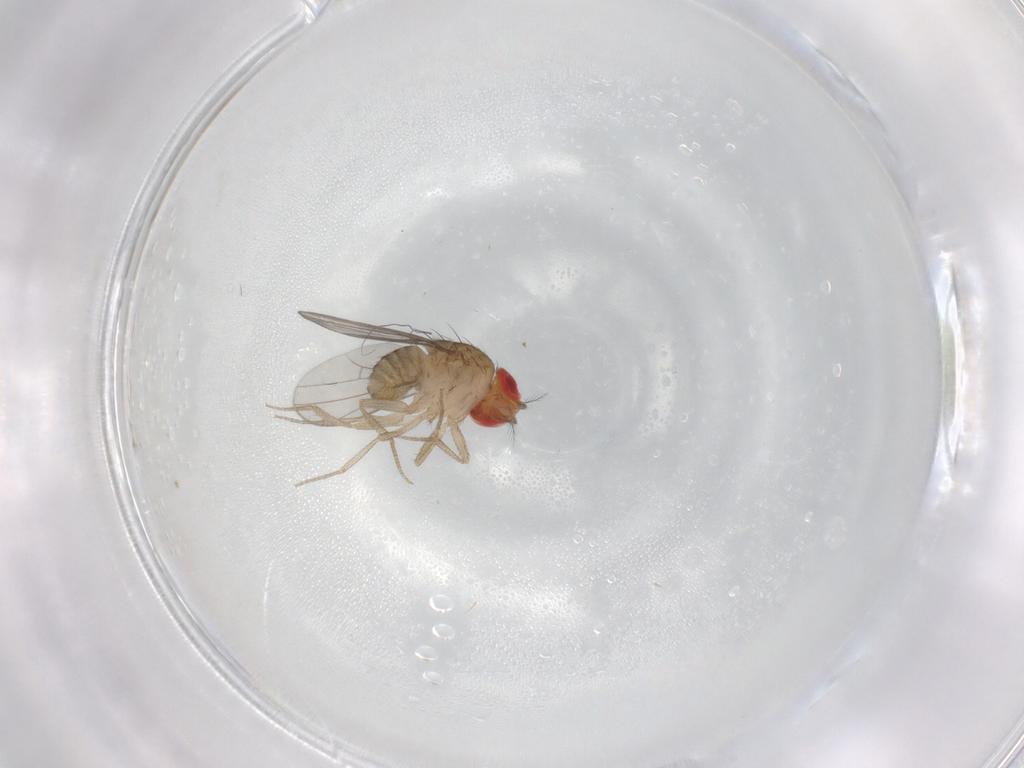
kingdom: Animalia
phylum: Arthropoda
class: Insecta
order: Diptera
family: Drosophilidae
